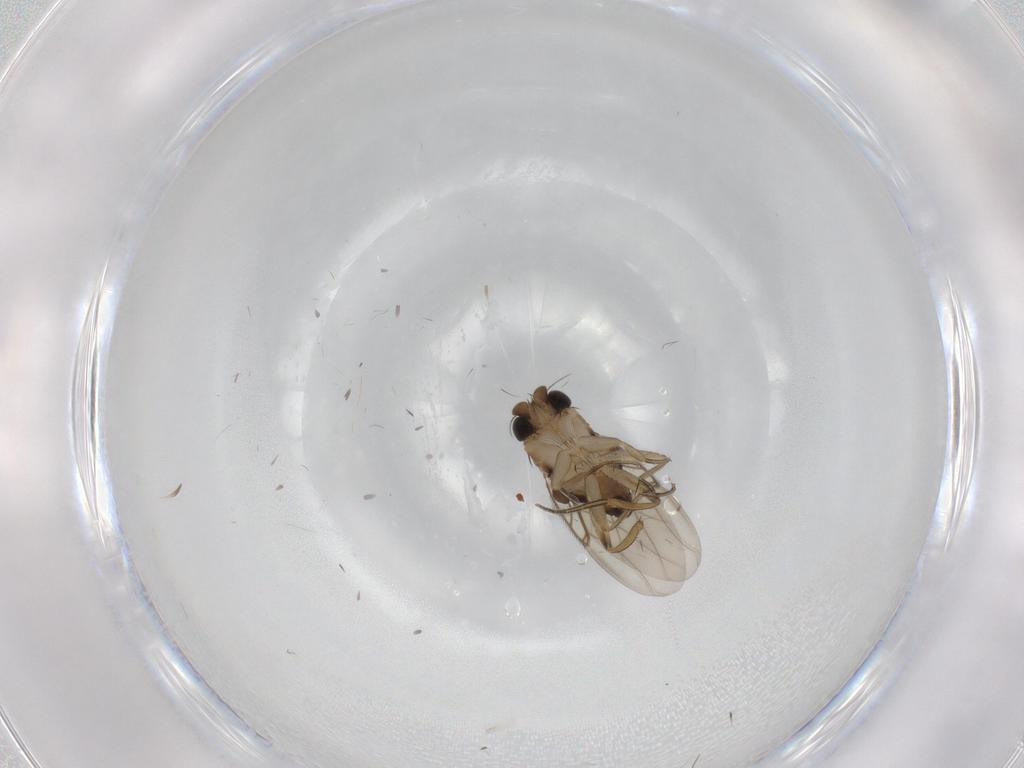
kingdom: Animalia
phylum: Arthropoda
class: Insecta
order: Diptera
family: Phoridae
